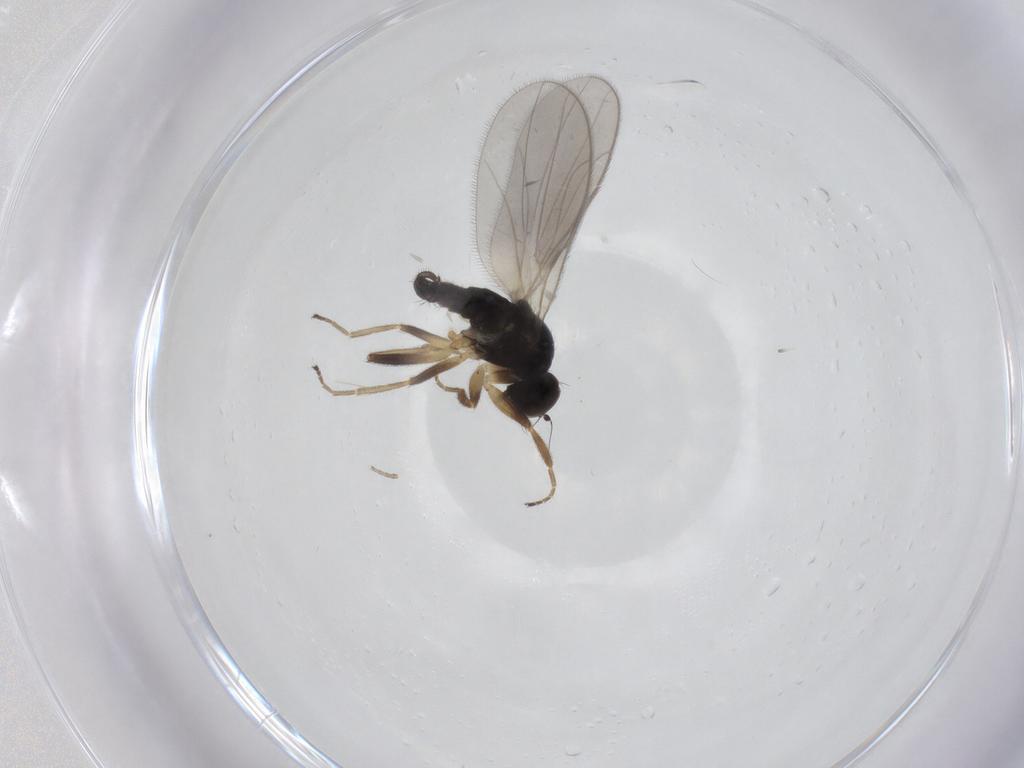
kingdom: Animalia
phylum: Arthropoda
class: Insecta
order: Diptera
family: Hybotidae
